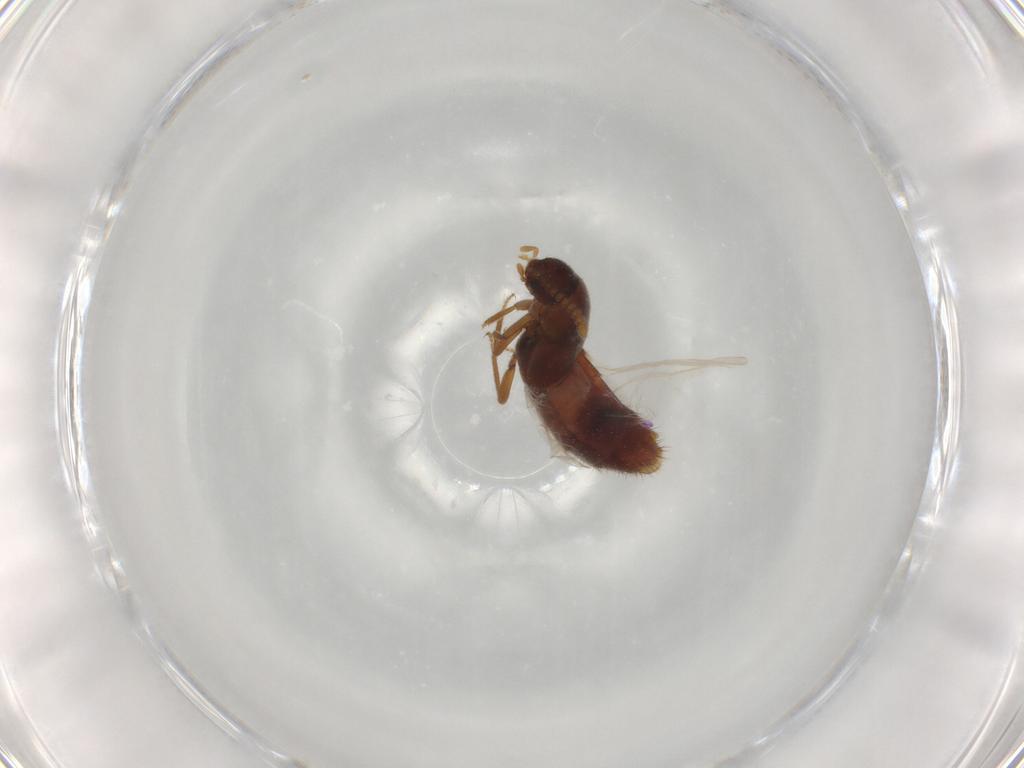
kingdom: Animalia
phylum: Arthropoda
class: Insecta
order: Coleoptera
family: Staphylinidae
